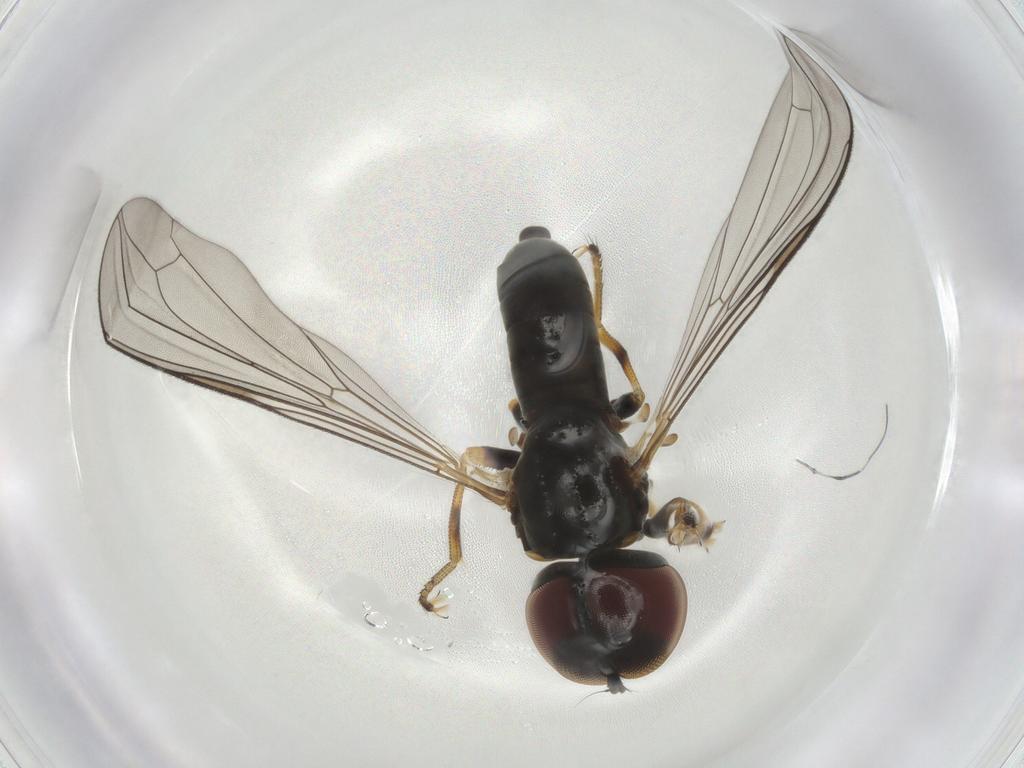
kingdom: Animalia
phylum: Arthropoda
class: Insecta
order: Diptera
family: Pipunculidae
